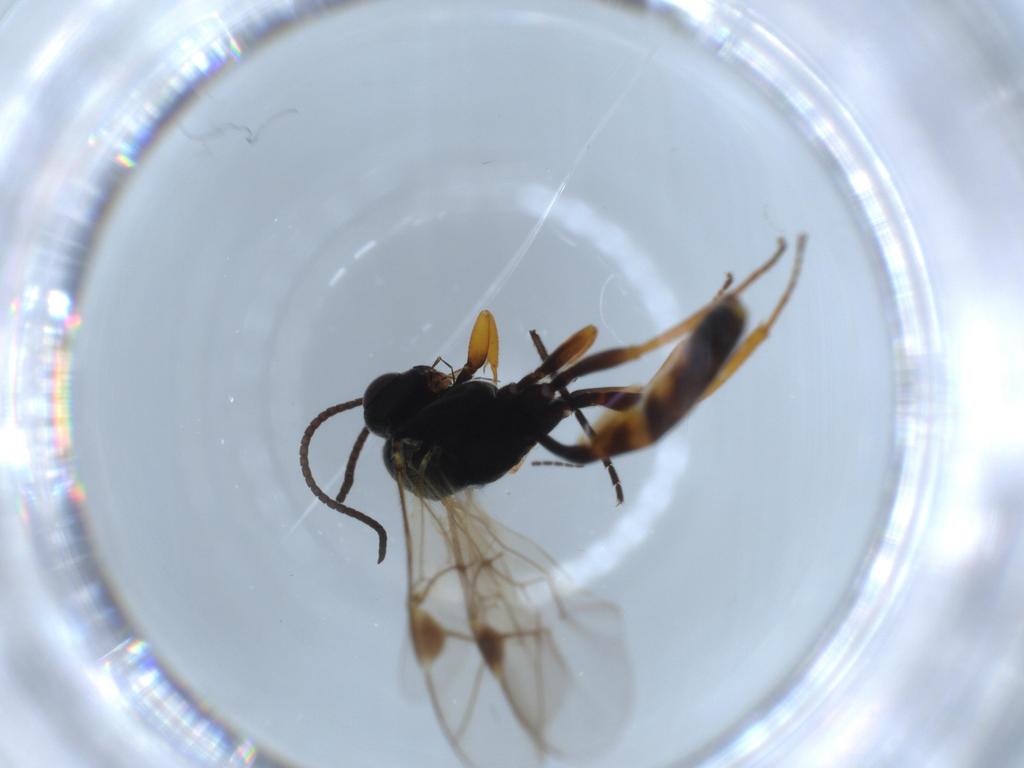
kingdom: Animalia
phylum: Arthropoda
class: Insecta
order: Hymenoptera
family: Ichneumonidae
